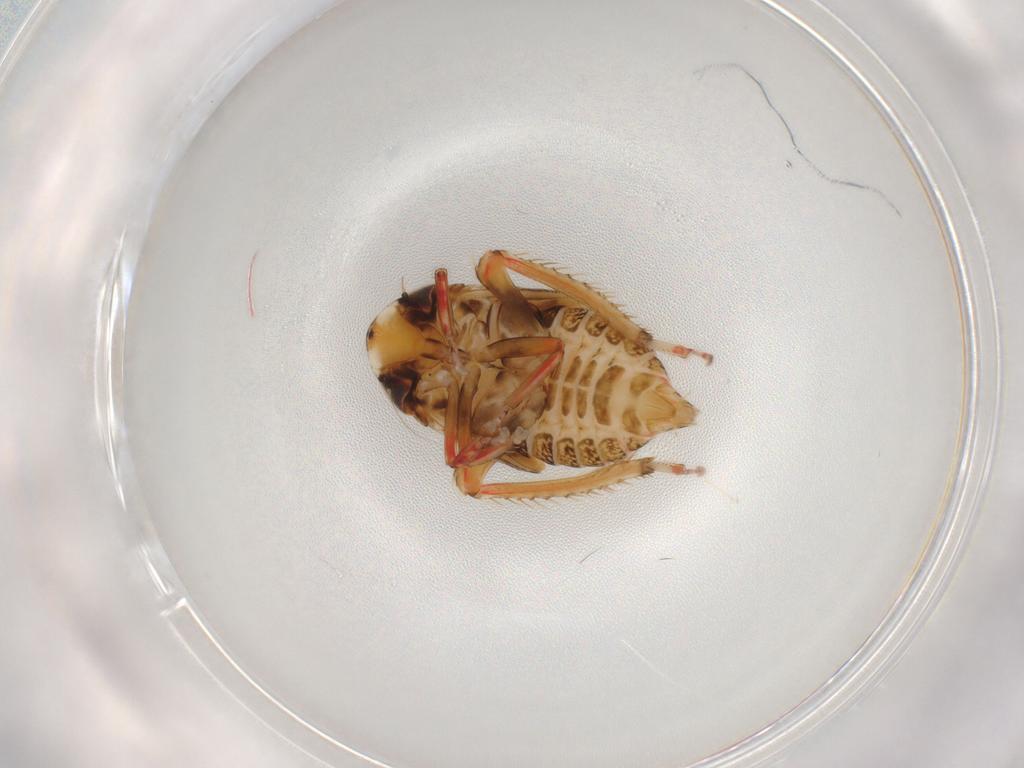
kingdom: Animalia
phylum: Arthropoda
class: Insecta
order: Hemiptera
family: Cicadellidae
